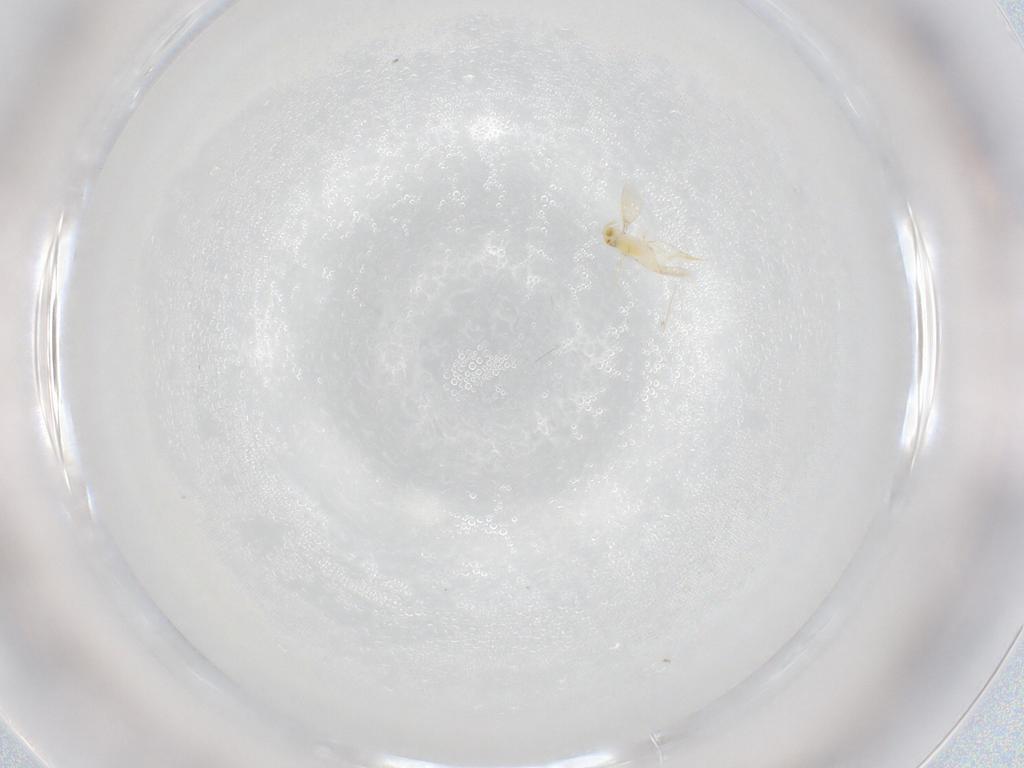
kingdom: Animalia
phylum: Arthropoda
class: Insecta
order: Hymenoptera
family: Aphelinidae
